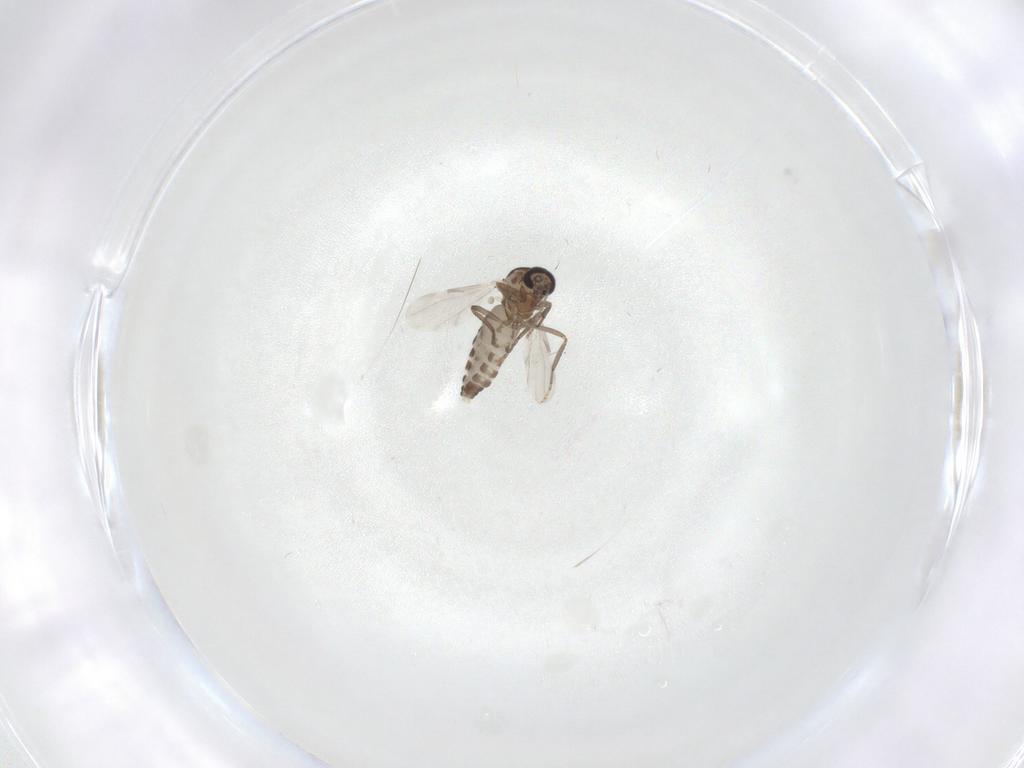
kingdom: Animalia
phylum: Arthropoda
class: Insecta
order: Diptera
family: Ceratopogonidae
